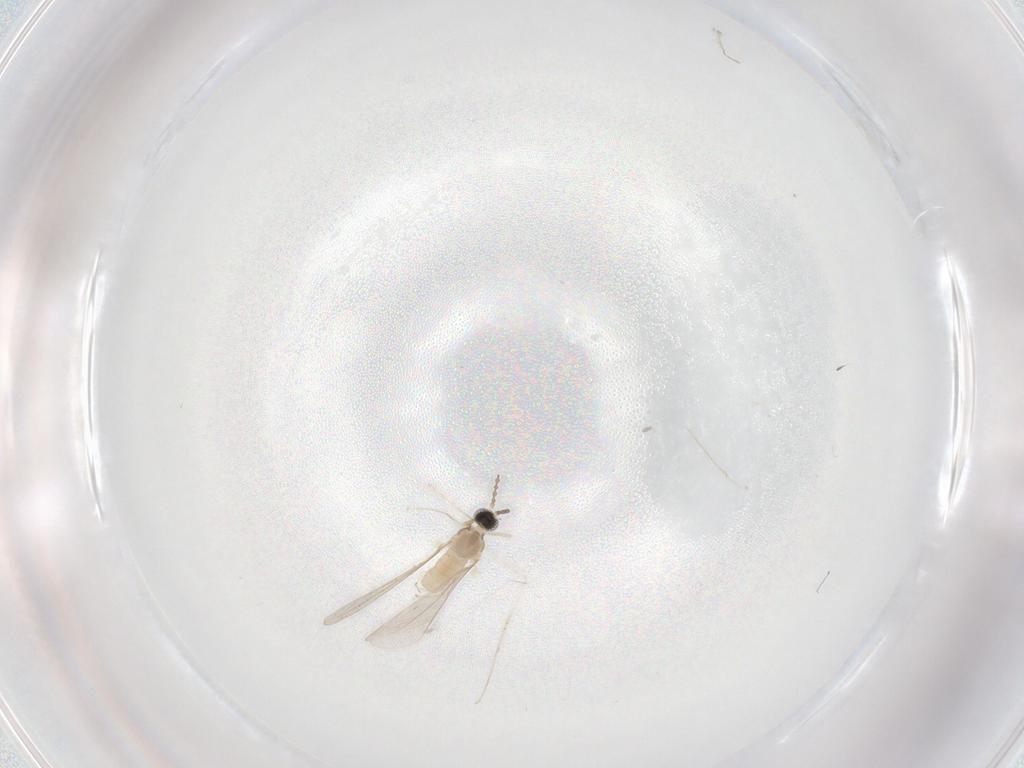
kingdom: Animalia
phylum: Arthropoda
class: Insecta
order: Diptera
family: Cecidomyiidae
